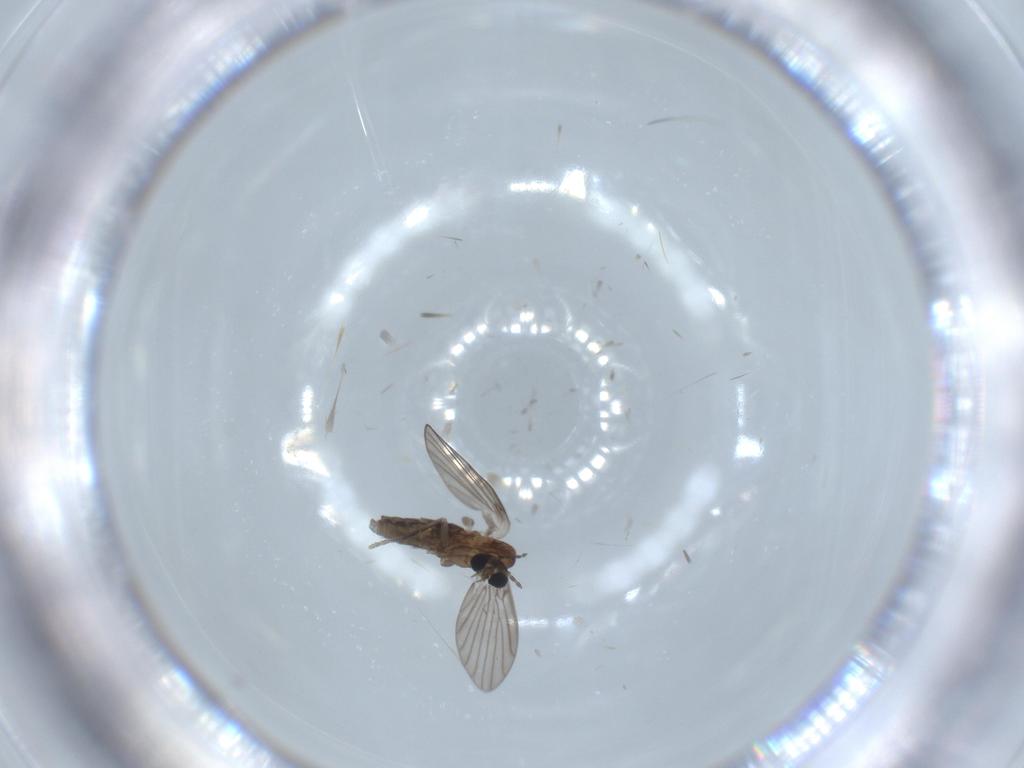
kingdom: Animalia
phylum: Arthropoda
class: Insecta
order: Diptera
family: Psychodidae
